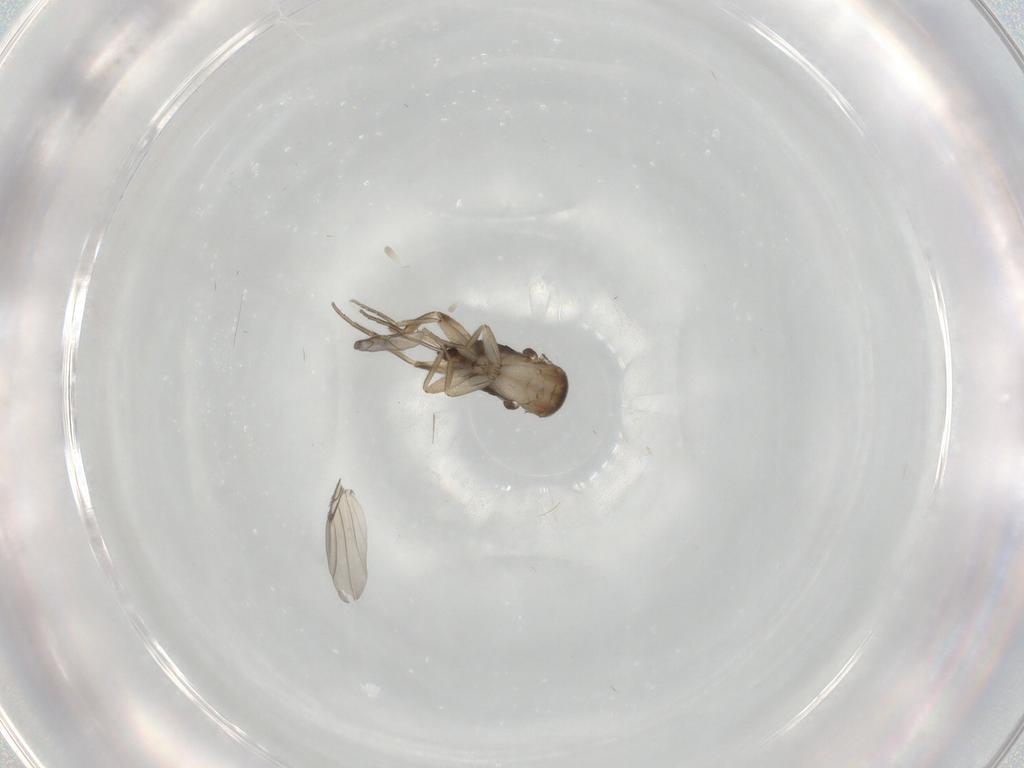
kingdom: Animalia
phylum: Arthropoda
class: Insecta
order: Diptera
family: Phoridae
